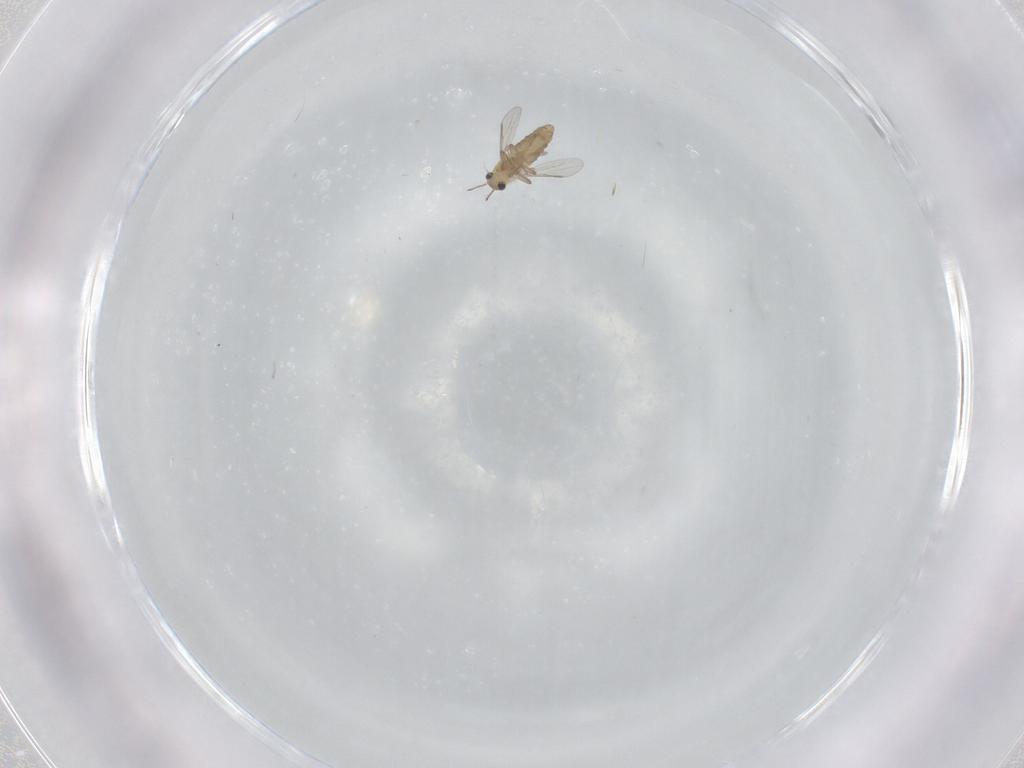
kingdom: Animalia
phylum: Arthropoda
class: Insecta
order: Diptera
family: Chironomidae
